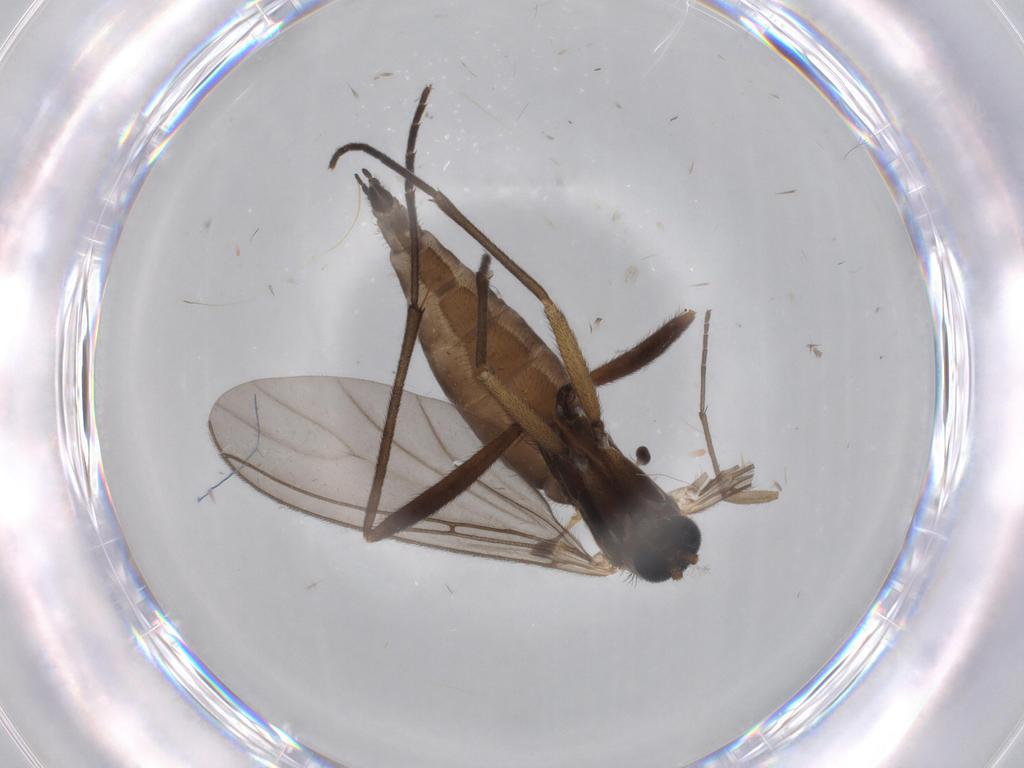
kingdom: Animalia
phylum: Arthropoda
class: Insecta
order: Diptera
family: Sciaridae
